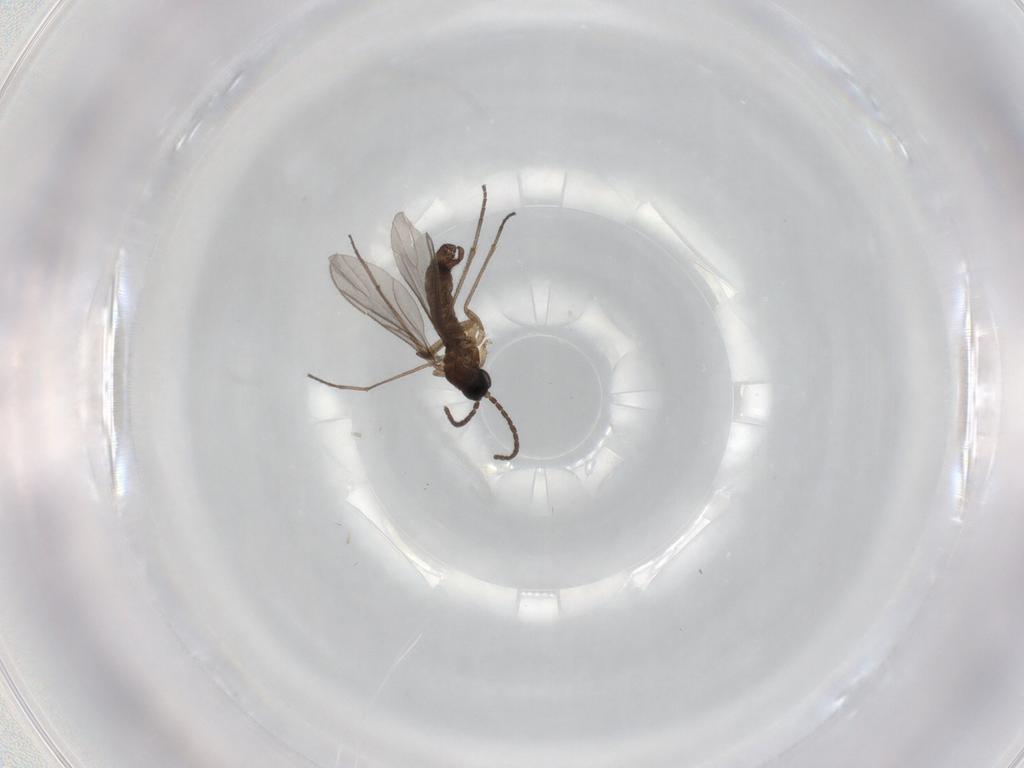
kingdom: Animalia
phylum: Arthropoda
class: Insecta
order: Diptera
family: Sciaridae
